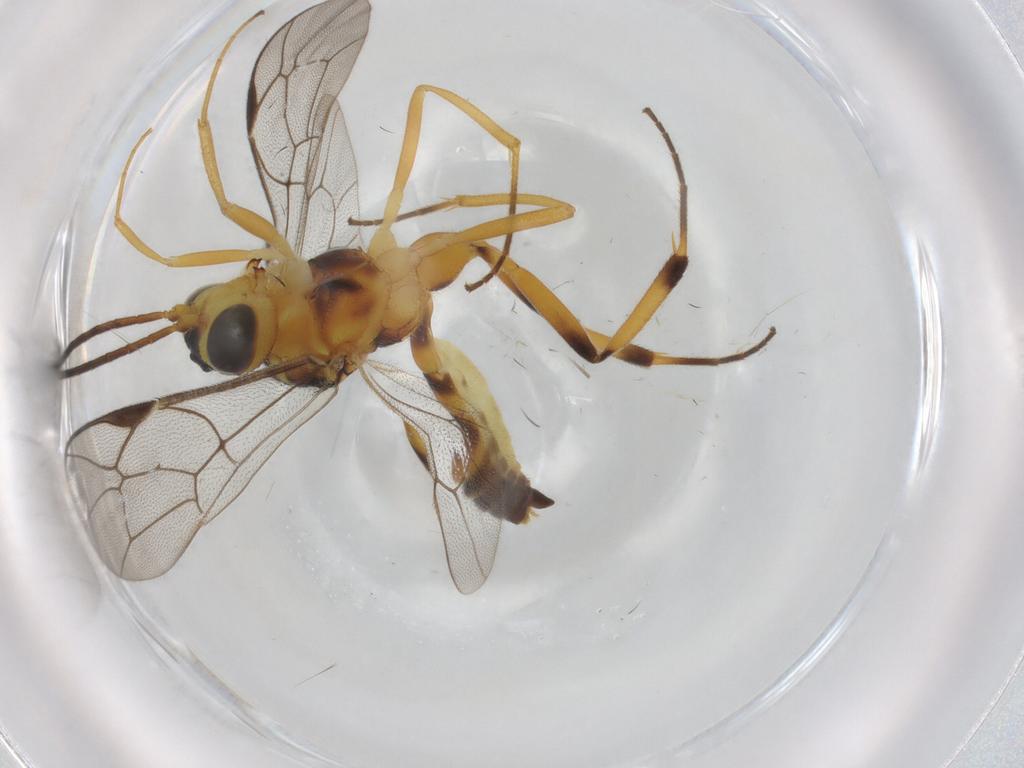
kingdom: Animalia
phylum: Arthropoda
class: Insecta
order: Hymenoptera
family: Ichneumonidae
